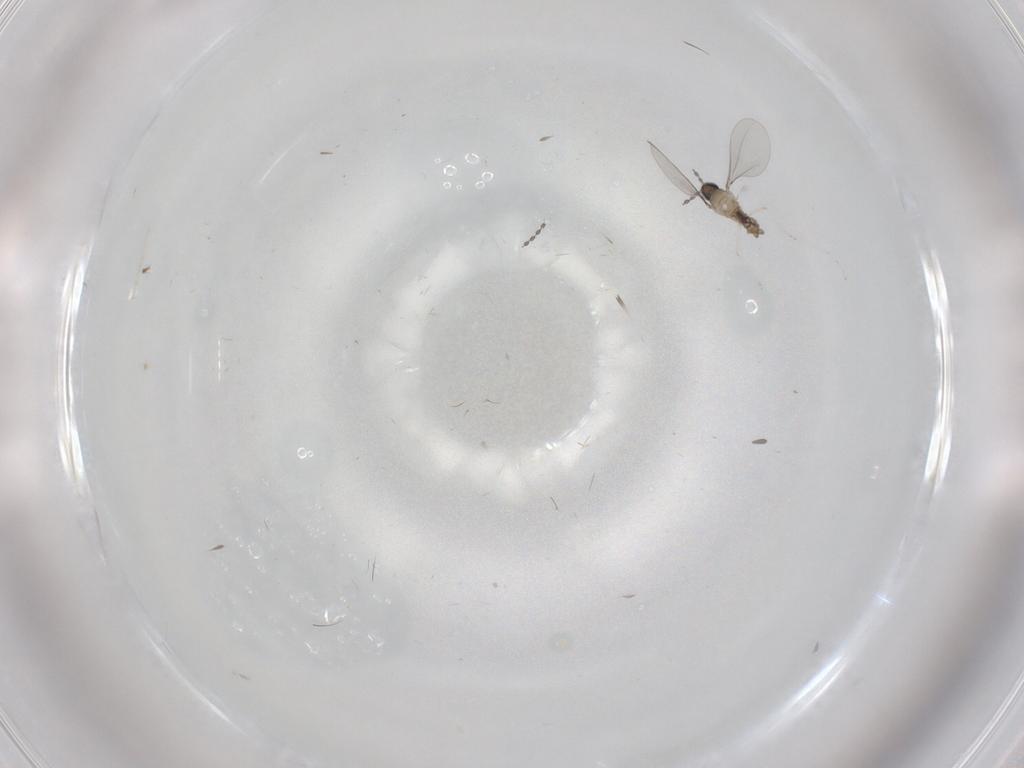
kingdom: Animalia
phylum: Arthropoda
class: Insecta
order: Diptera
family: Cecidomyiidae
